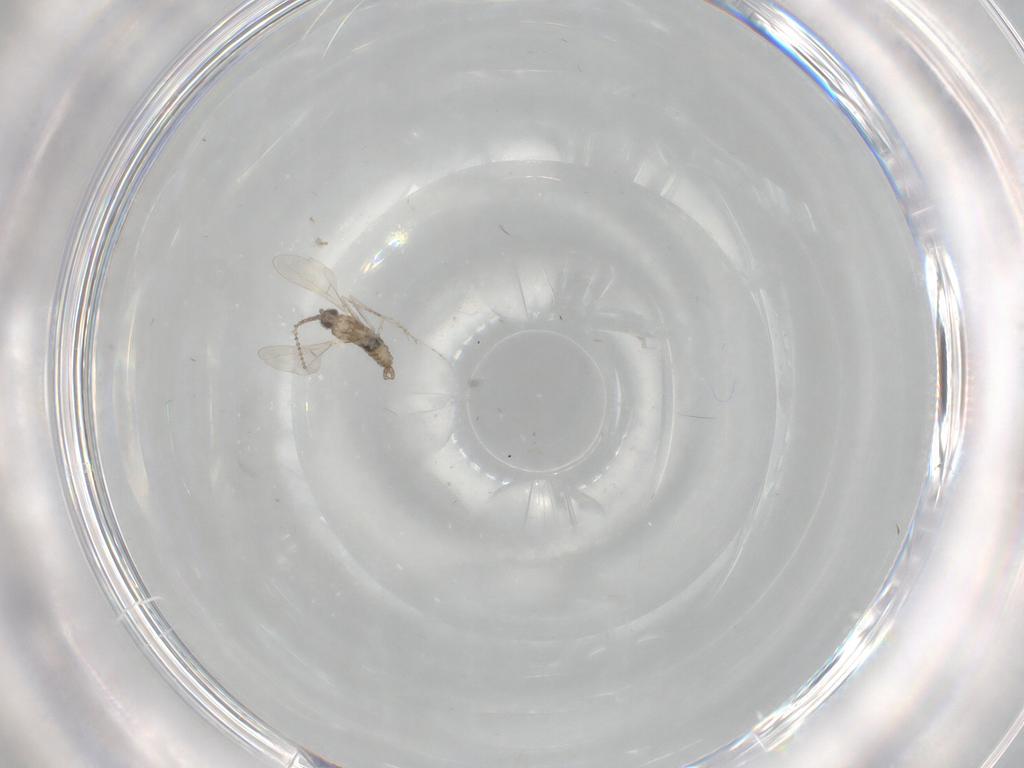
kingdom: Animalia
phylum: Arthropoda
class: Insecta
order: Diptera
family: Cecidomyiidae
